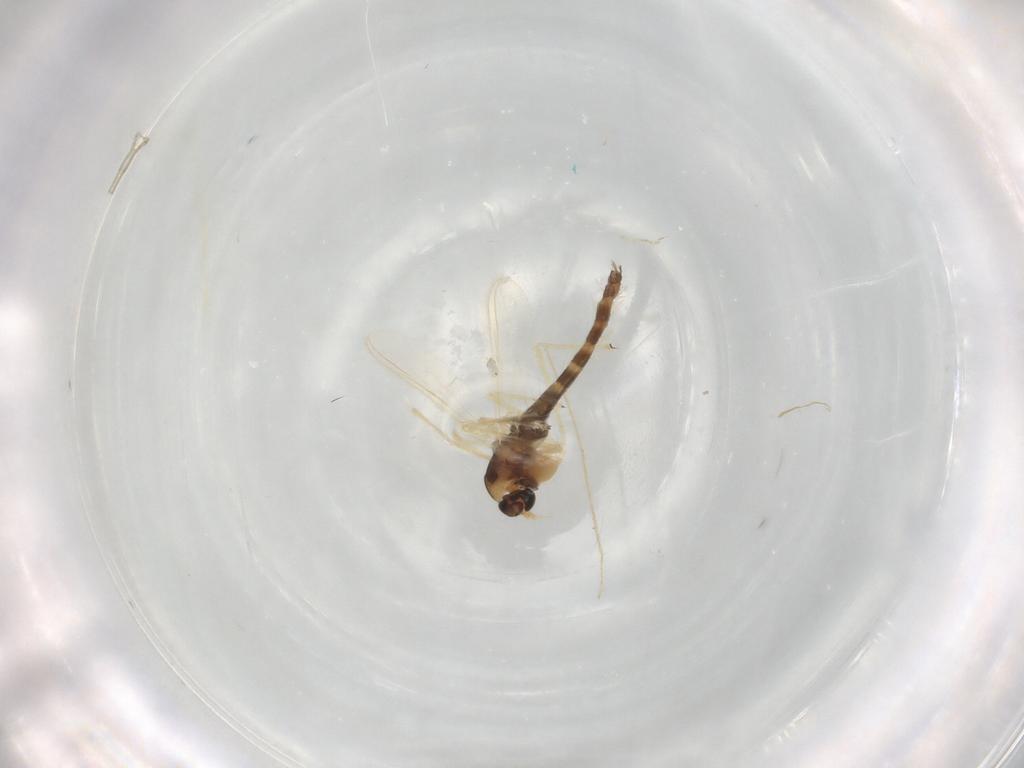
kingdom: Animalia
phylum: Arthropoda
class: Insecta
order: Diptera
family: Chironomidae
